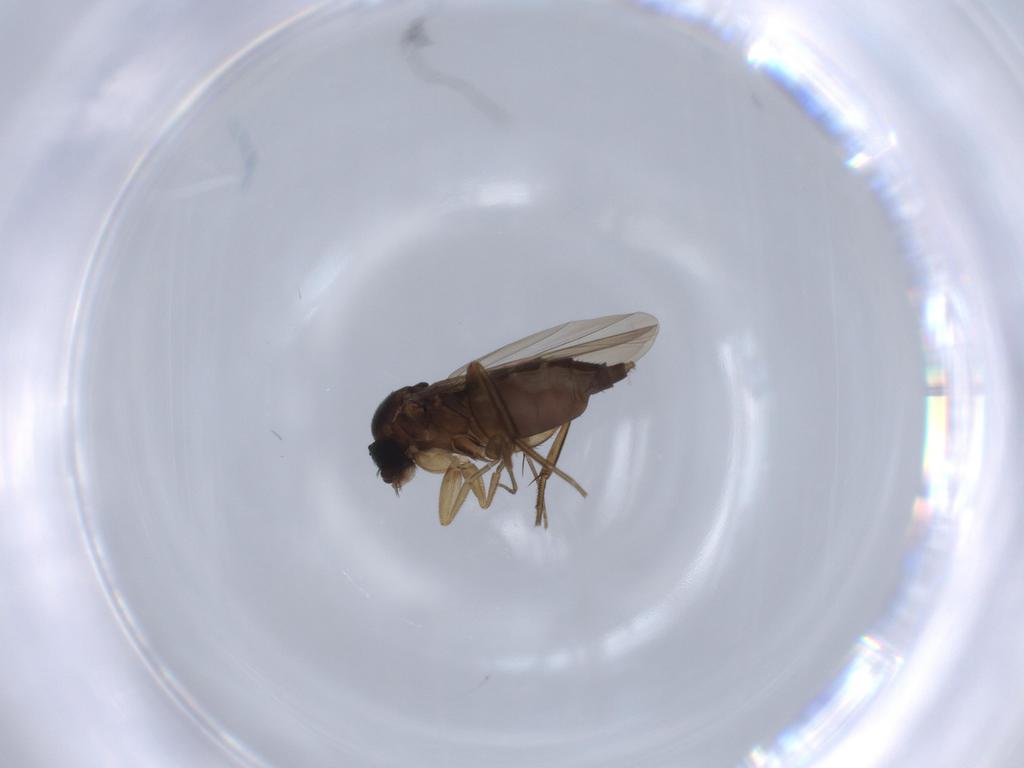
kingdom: Animalia
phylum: Arthropoda
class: Insecta
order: Diptera
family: Phoridae
